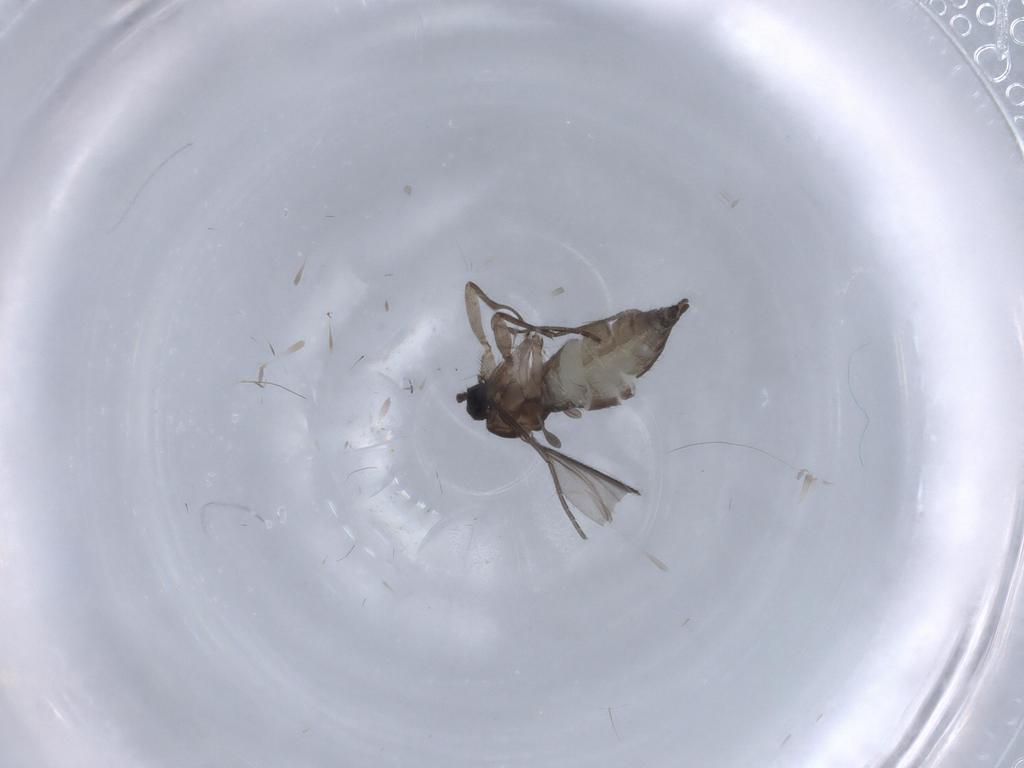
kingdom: Animalia
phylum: Arthropoda
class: Insecta
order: Diptera
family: Sciaridae
